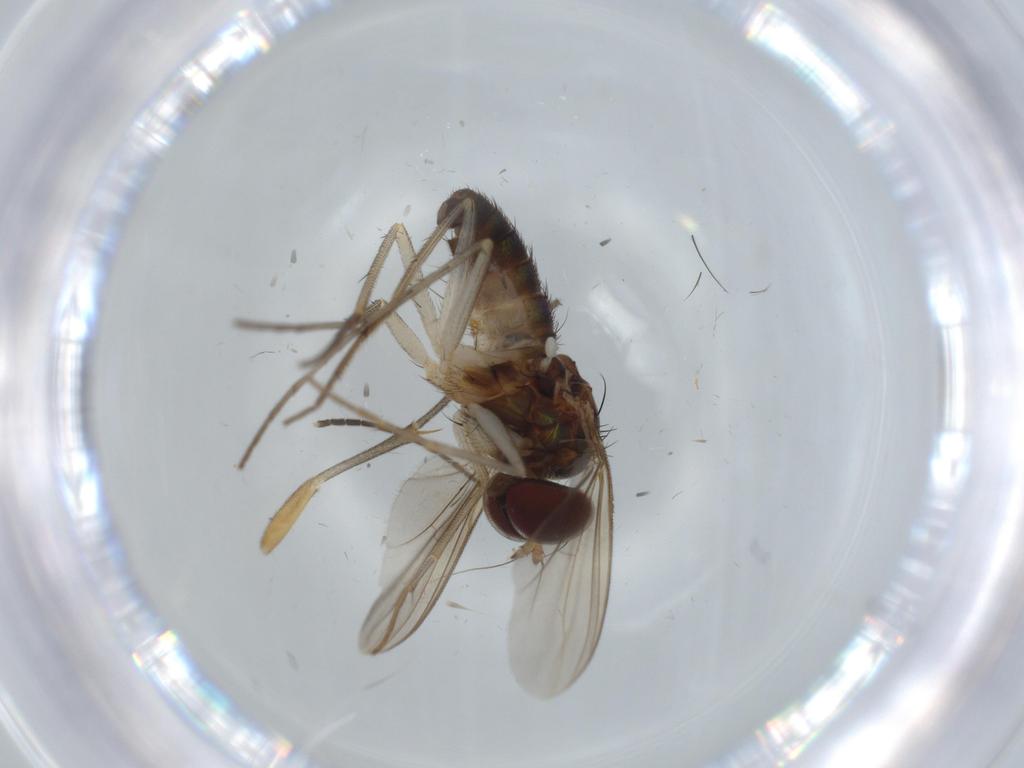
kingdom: Animalia
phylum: Arthropoda
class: Insecta
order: Diptera
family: Dolichopodidae
